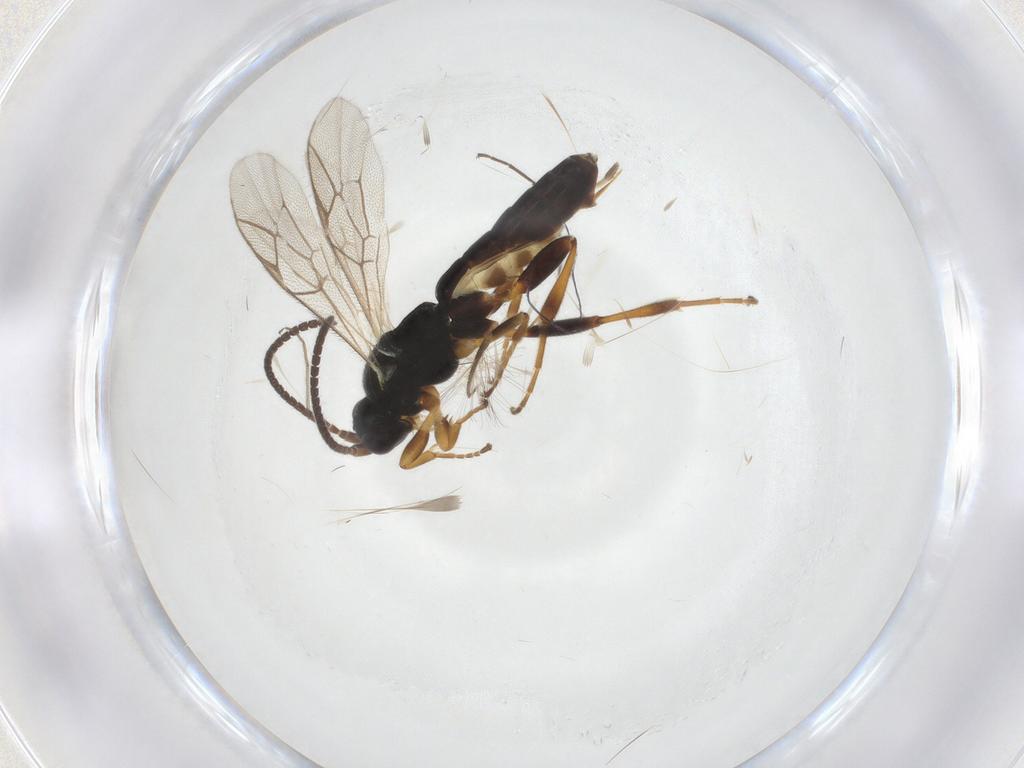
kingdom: Animalia
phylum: Arthropoda
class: Insecta
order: Hymenoptera
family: Ichneumonidae
